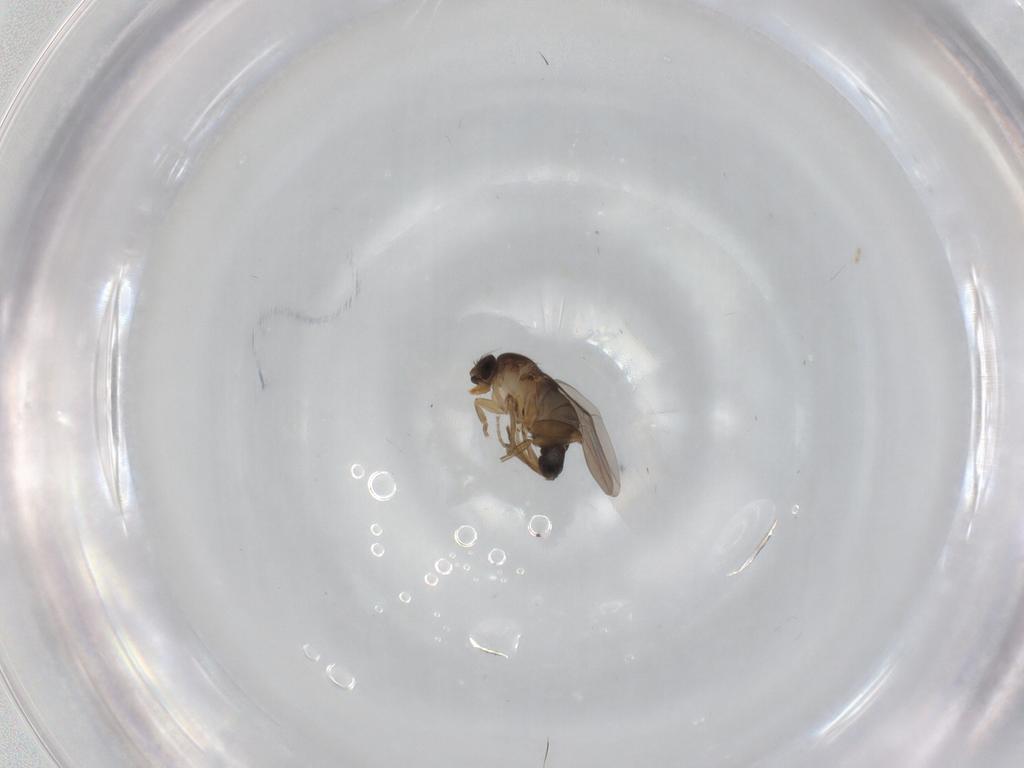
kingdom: Animalia
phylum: Arthropoda
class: Insecta
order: Diptera
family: Phoridae
